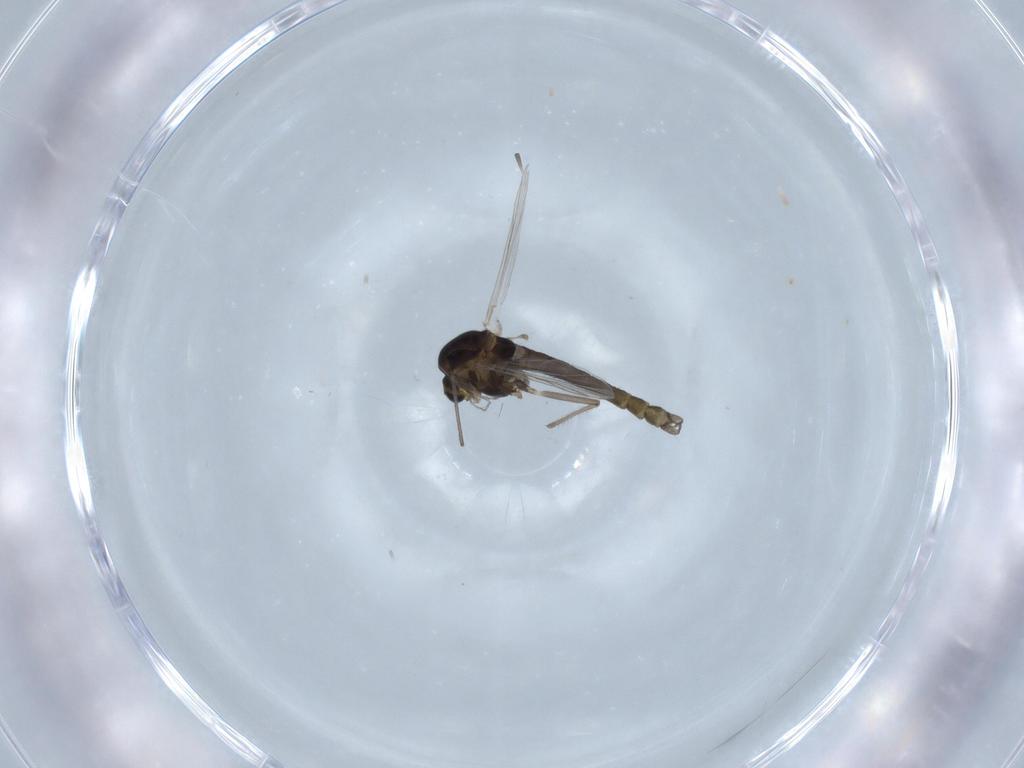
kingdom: Animalia
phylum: Arthropoda
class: Insecta
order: Diptera
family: Chironomidae
